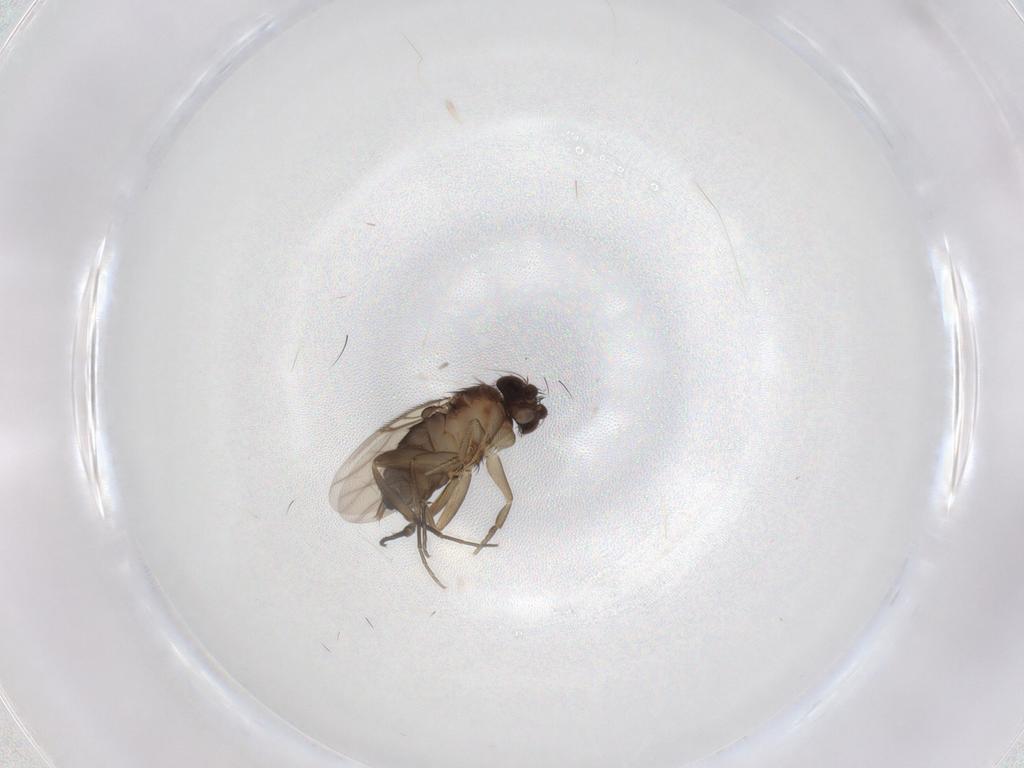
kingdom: Animalia
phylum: Arthropoda
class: Insecta
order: Diptera
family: Phoridae
